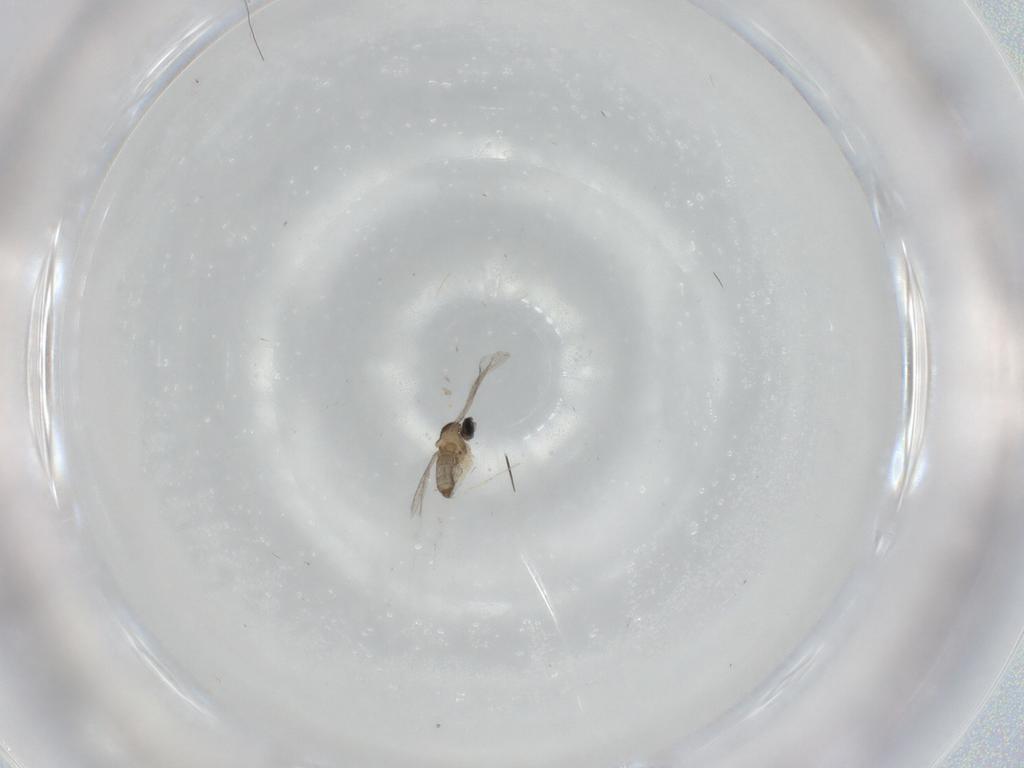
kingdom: Animalia
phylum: Arthropoda
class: Insecta
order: Diptera
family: Cecidomyiidae
